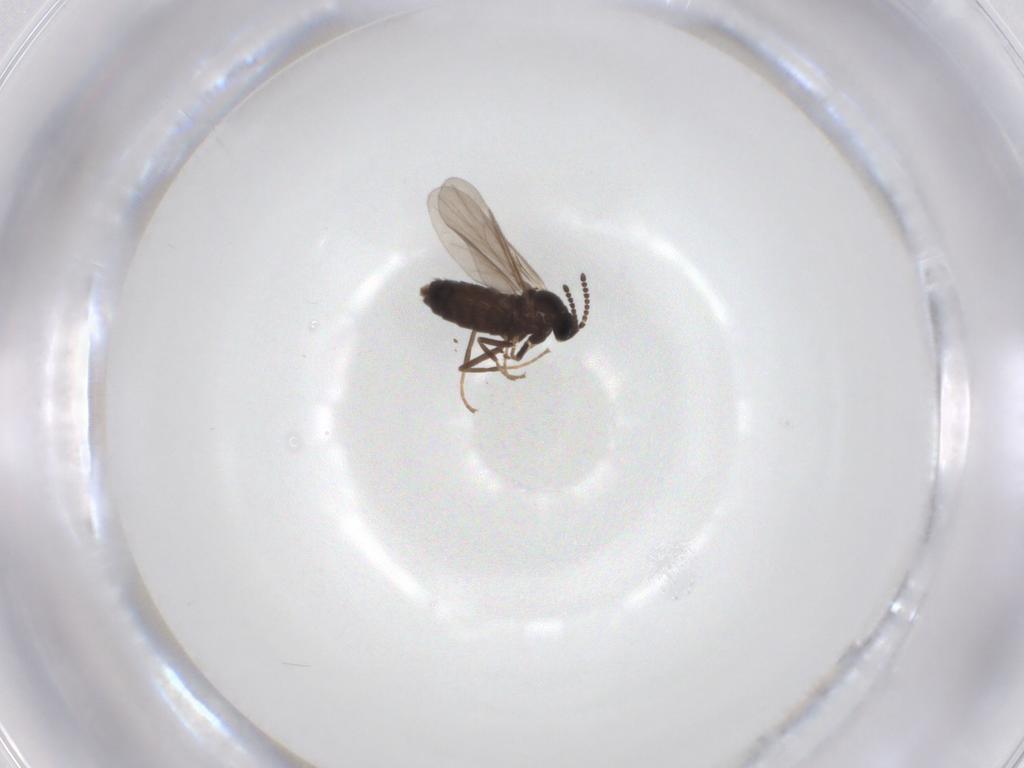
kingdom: Animalia
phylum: Arthropoda
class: Insecta
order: Diptera
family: Scatopsidae
